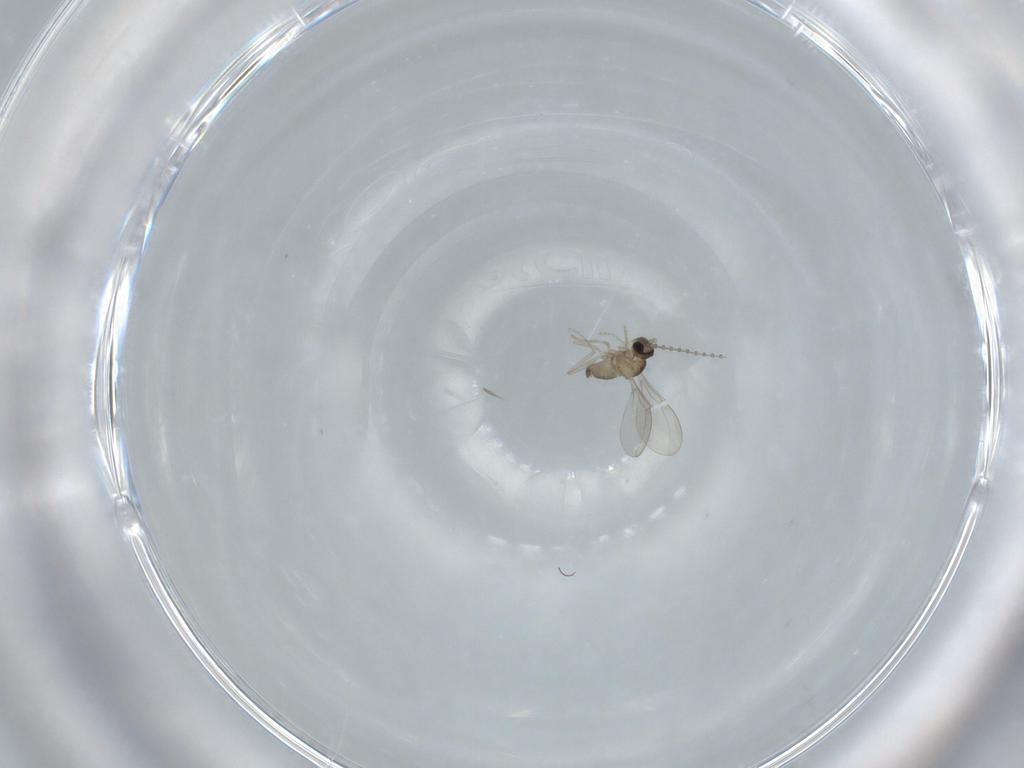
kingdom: Animalia
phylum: Arthropoda
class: Insecta
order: Diptera
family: Cecidomyiidae
